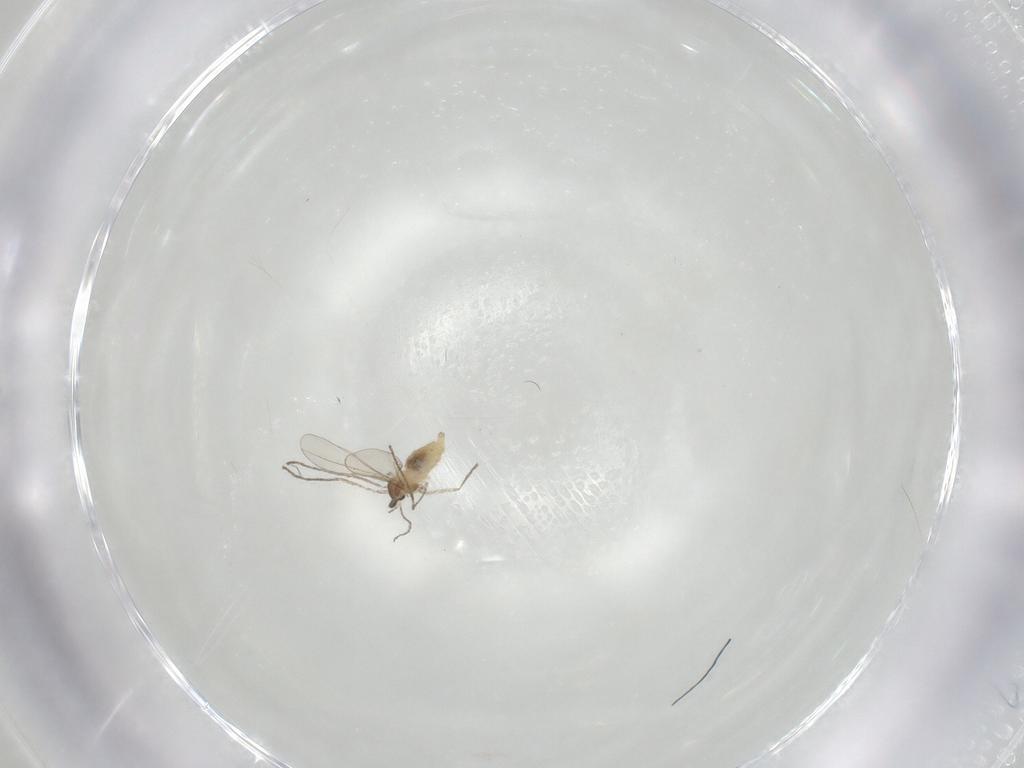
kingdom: Animalia
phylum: Arthropoda
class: Insecta
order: Diptera
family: Cecidomyiidae
